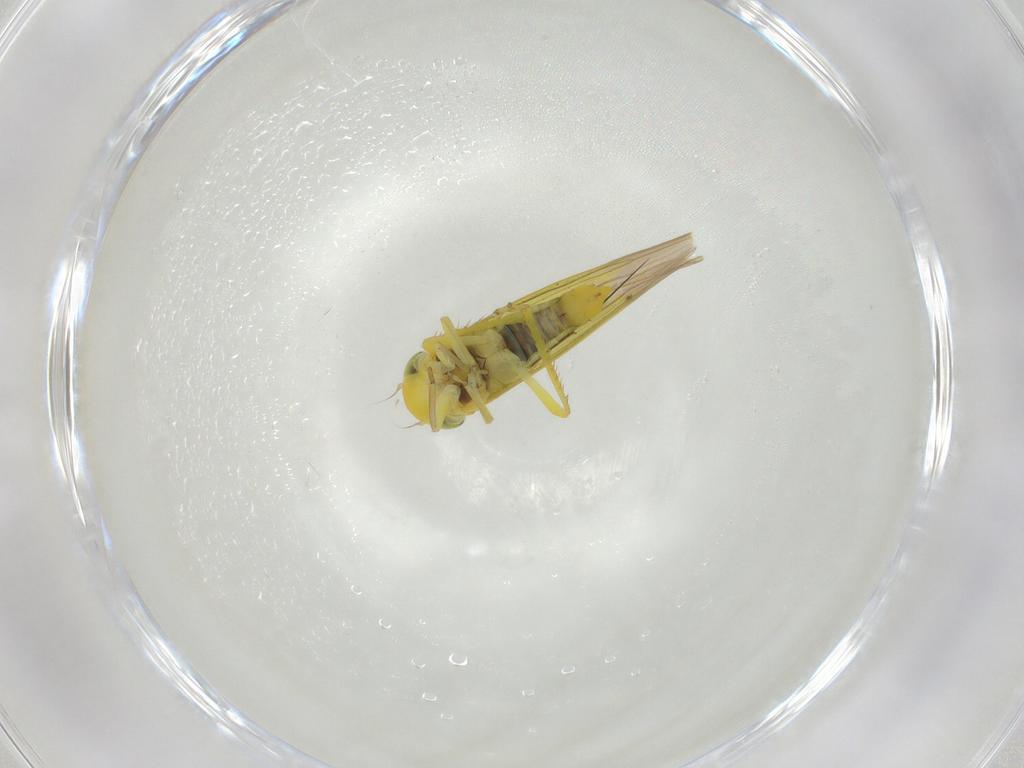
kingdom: Animalia
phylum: Arthropoda
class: Insecta
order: Hemiptera
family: Cicadellidae
